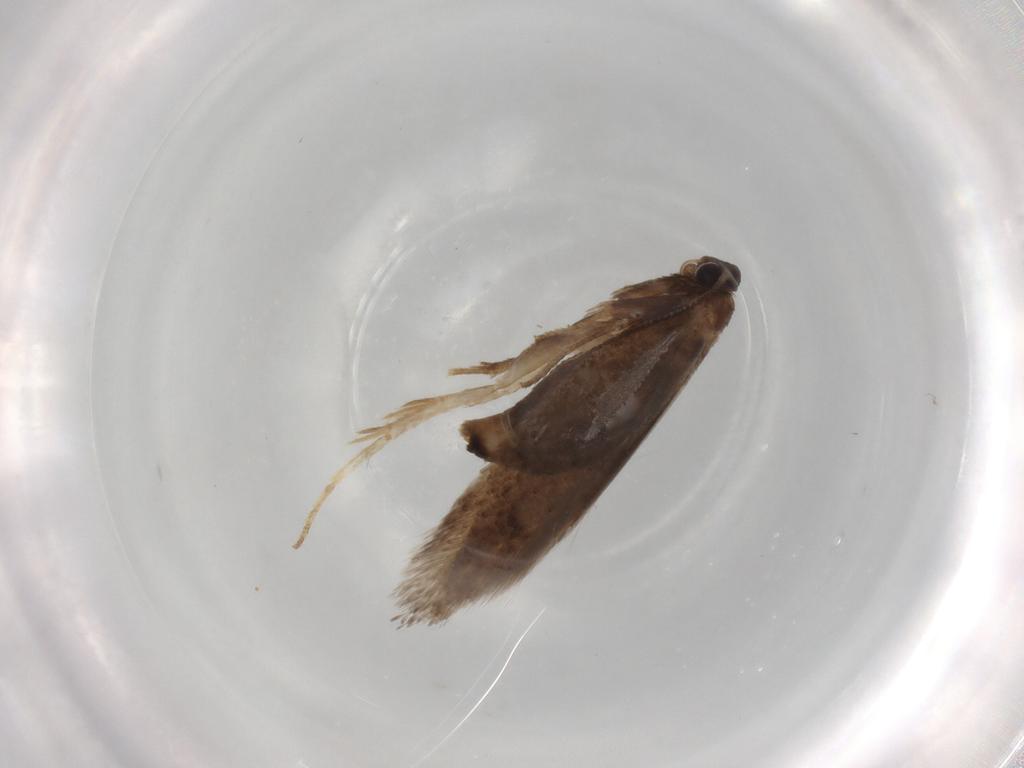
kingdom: Animalia
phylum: Arthropoda
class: Insecta
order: Lepidoptera
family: Nepticulidae
